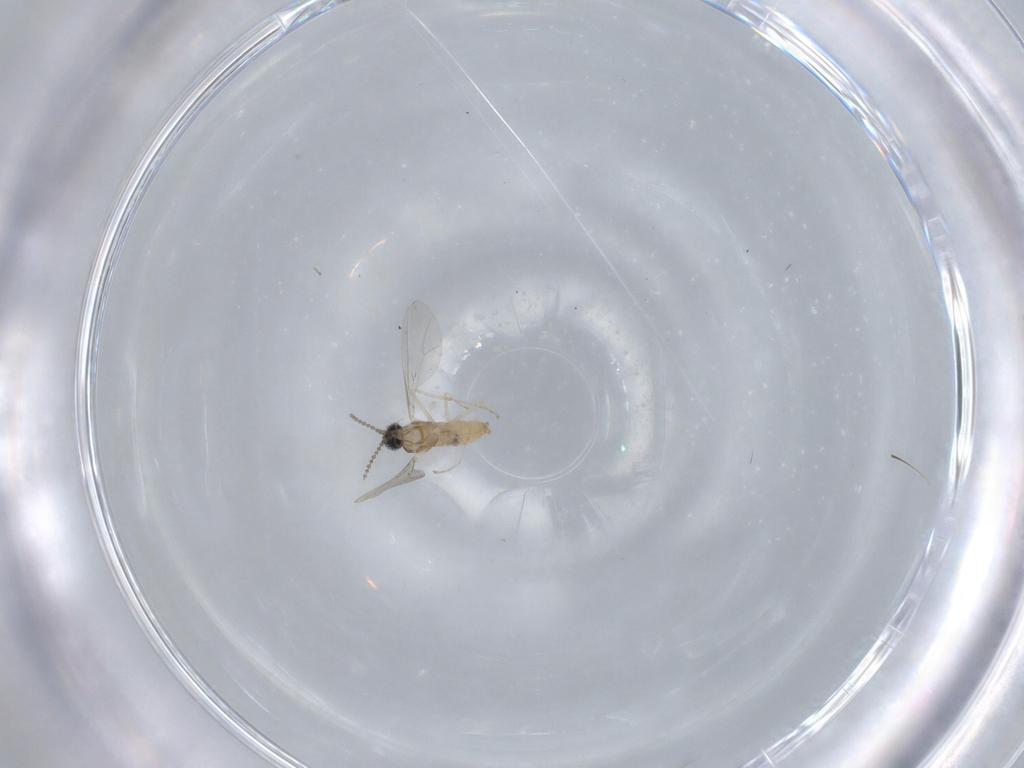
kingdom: Animalia
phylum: Arthropoda
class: Insecta
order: Diptera
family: Cecidomyiidae
